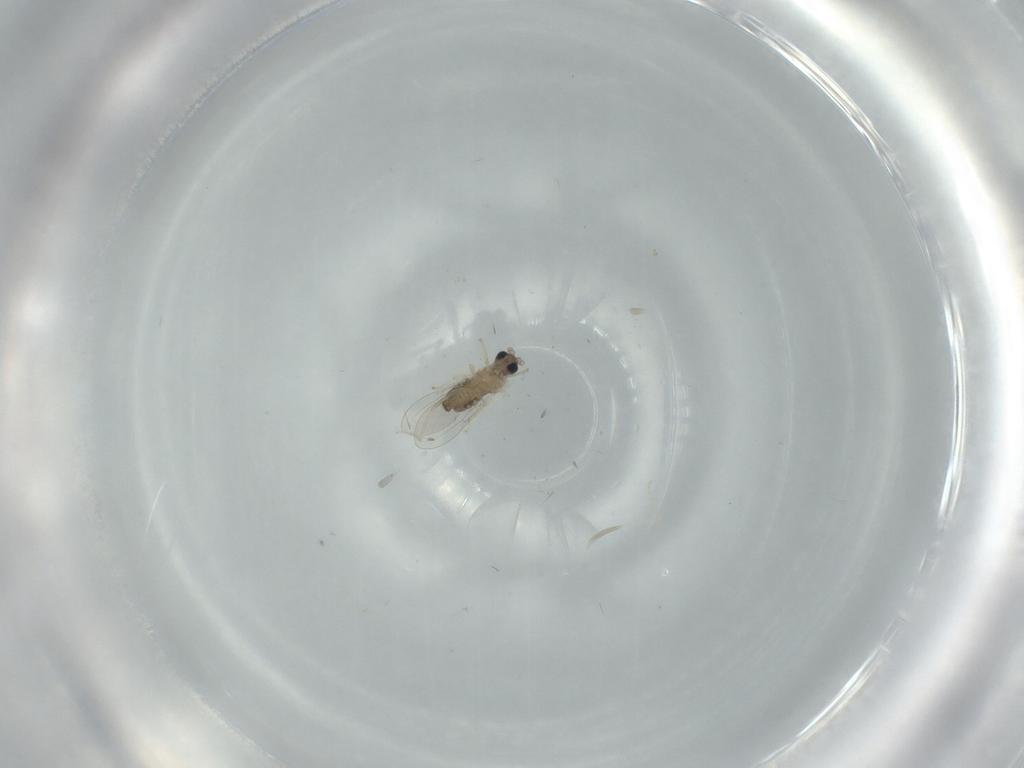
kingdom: Animalia
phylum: Arthropoda
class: Insecta
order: Diptera
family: Cecidomyiidae
